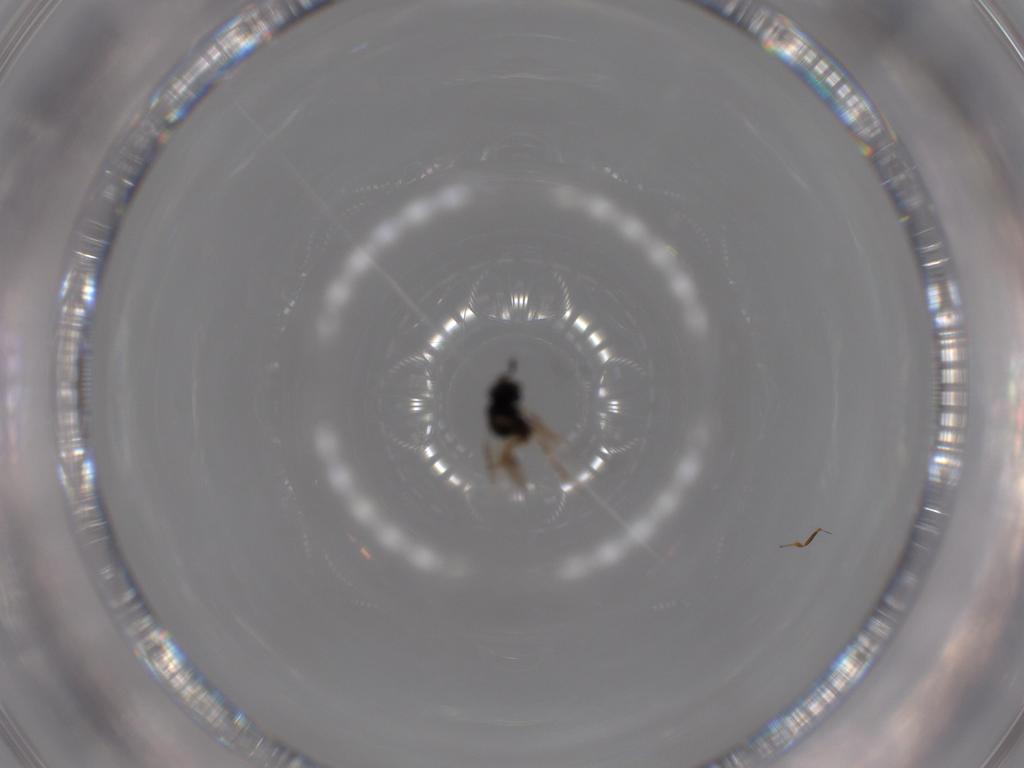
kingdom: Animalia
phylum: Arthropoda
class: Insecta
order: Hymenoptera
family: Scelionidae
